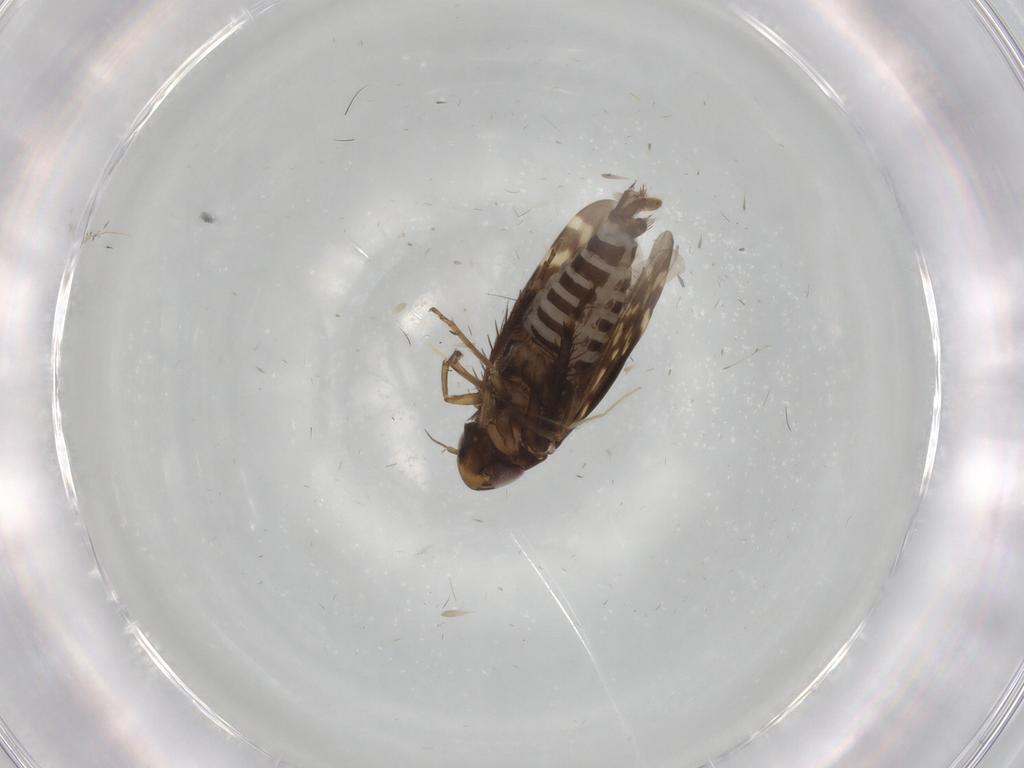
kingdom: Animalia
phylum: Arthropoda
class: Insecta
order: Hemiptera
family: Cicadellidae
